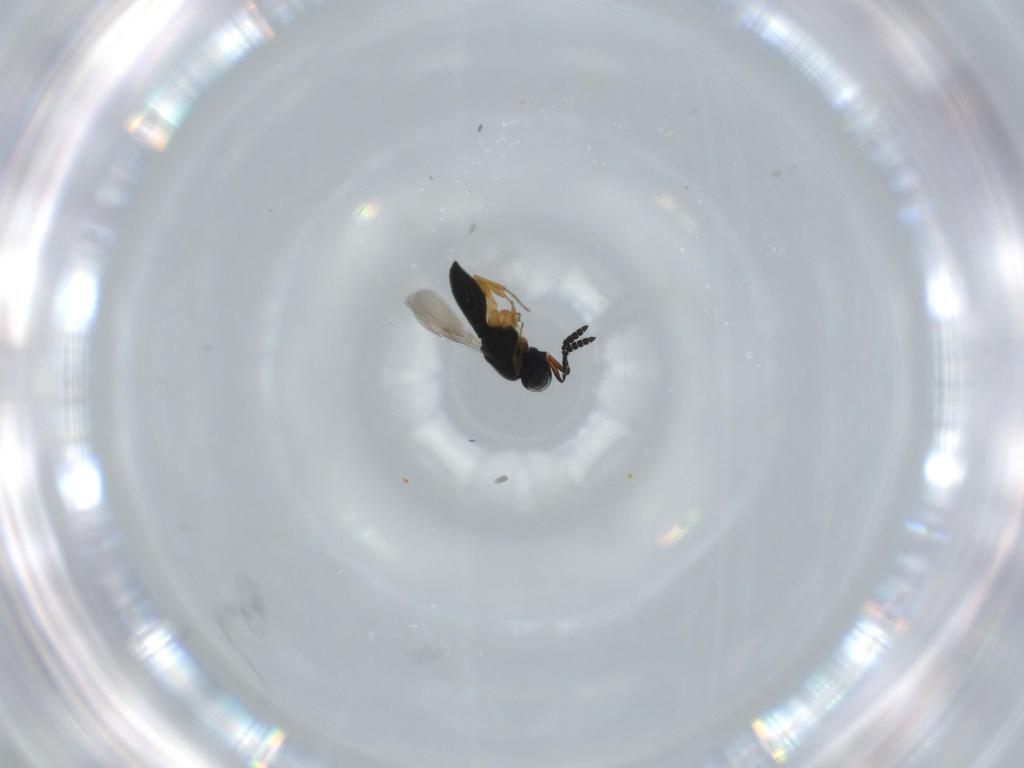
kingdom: Animalia
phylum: Arthropoda
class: Insecta
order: Hymenoptera
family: Scelionidae
